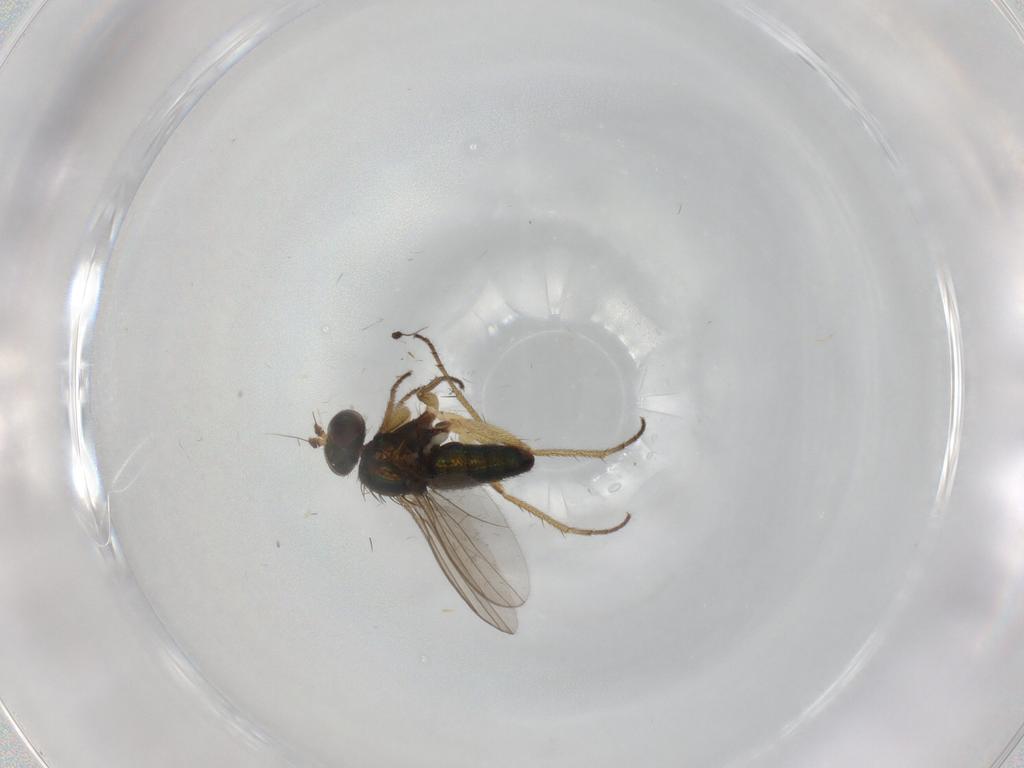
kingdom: Animalia
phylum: Arthropoda
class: Insecta
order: Diptera
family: Dolichopodidae
